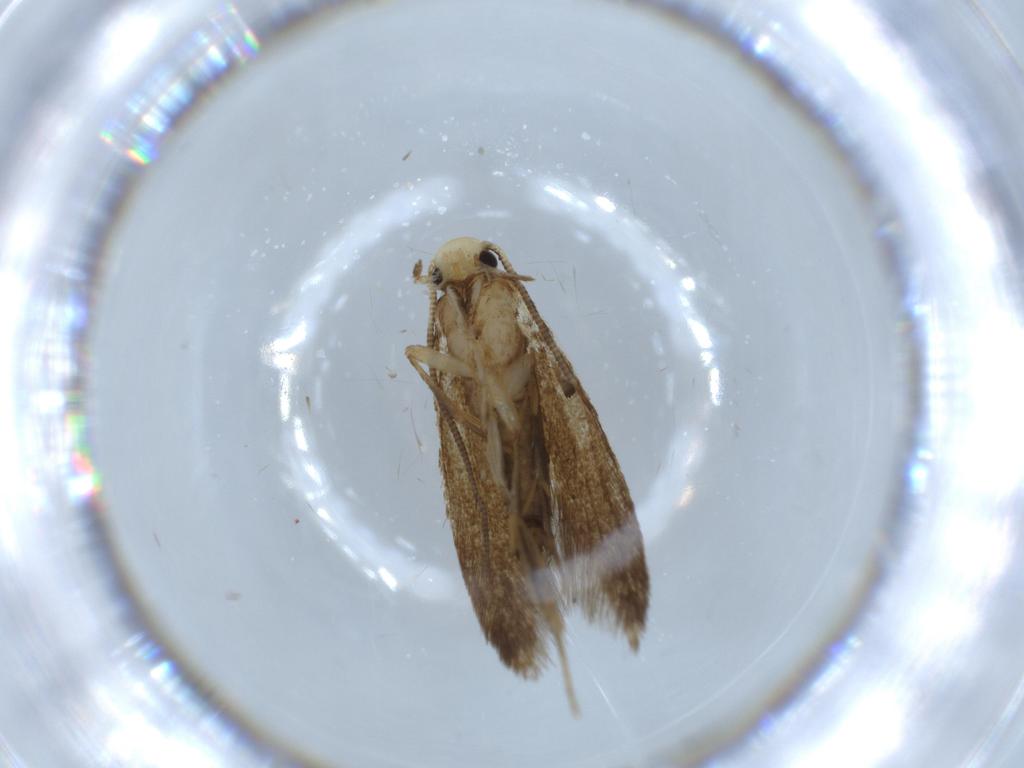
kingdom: Animalia
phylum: Arthropoda
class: Insecta
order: Lepidoptera
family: Tineidae
